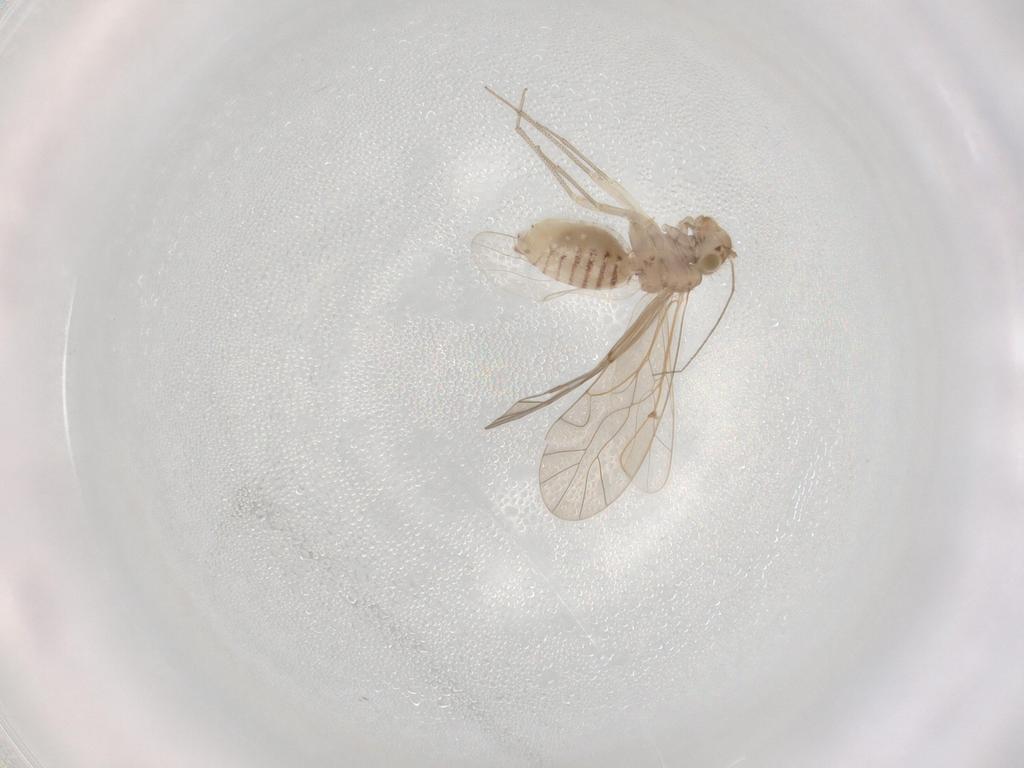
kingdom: Animalia
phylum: Arthropoda
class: Insecta
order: Psocodea
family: Lachesillidae
